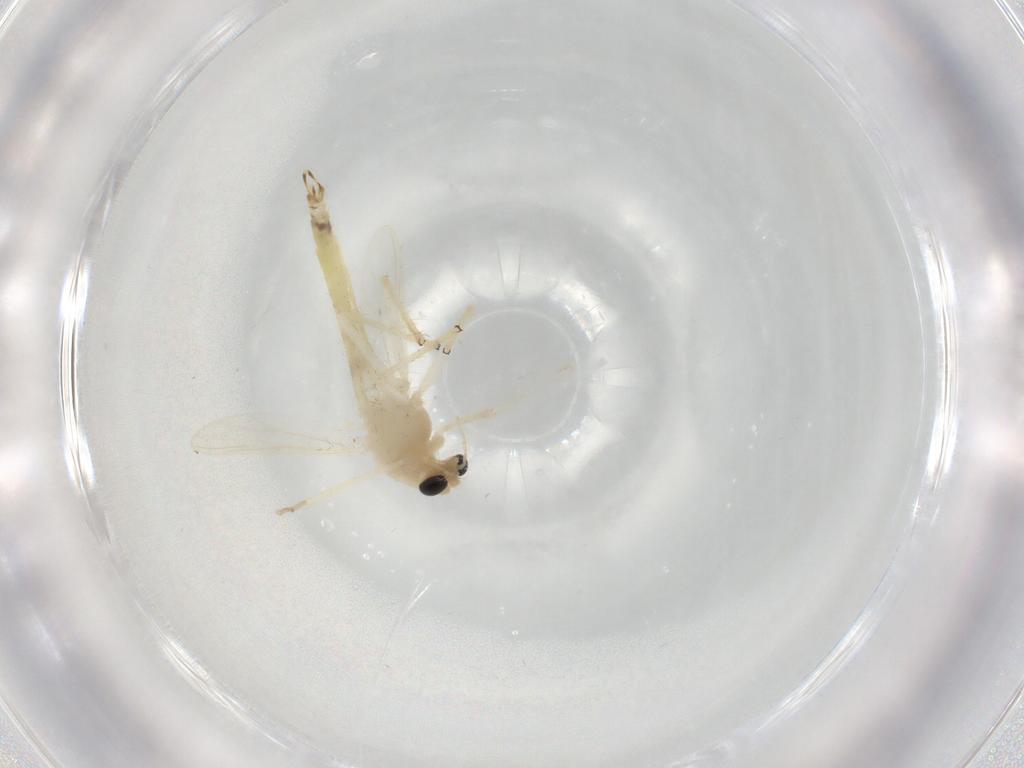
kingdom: Animalia
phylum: Arthropoda
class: Insecta
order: Diptera
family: Chironomidae
